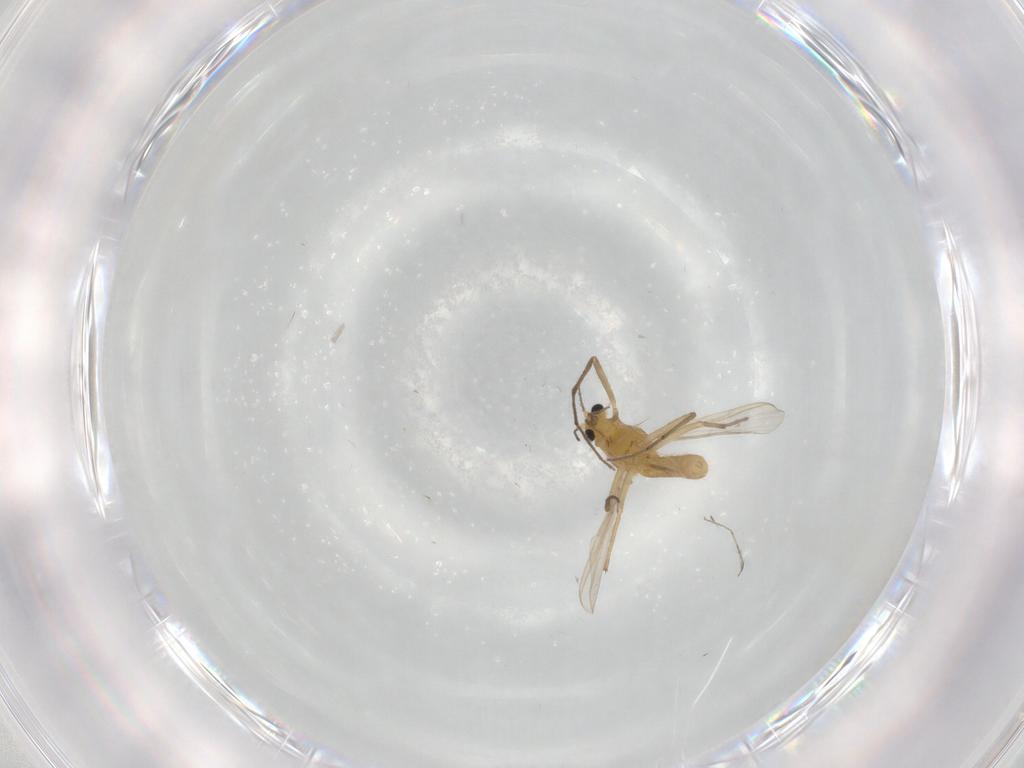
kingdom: Animalia
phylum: Arthropoda
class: Insecta
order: Diptera
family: Chironomidae
